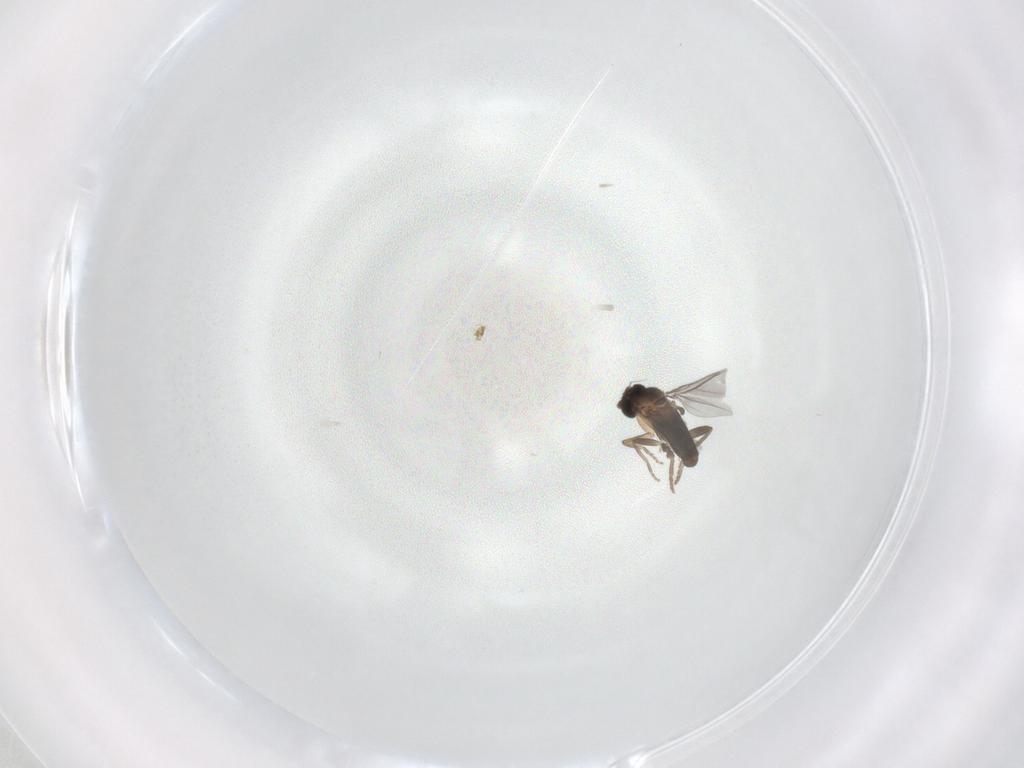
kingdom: Animalia
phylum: Arthropoda
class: Insecta
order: Diptera
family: Phoridae
